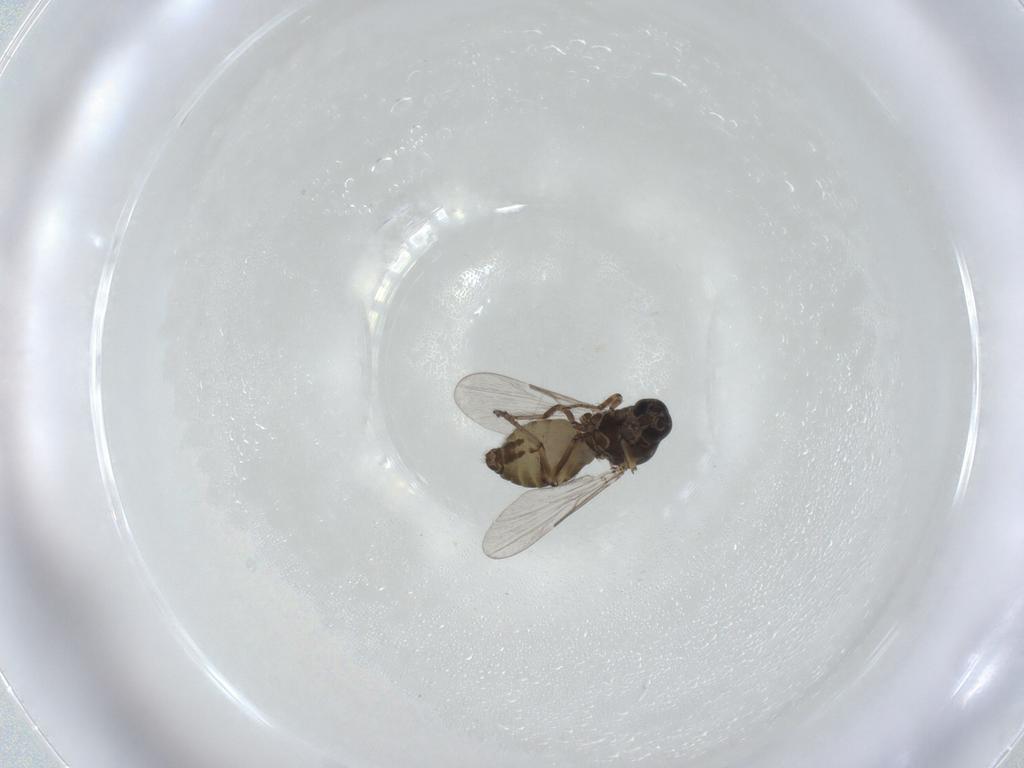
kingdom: Animalia
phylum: Arthropoda
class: Insecta
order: Diptera
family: Ceratopogonidae
